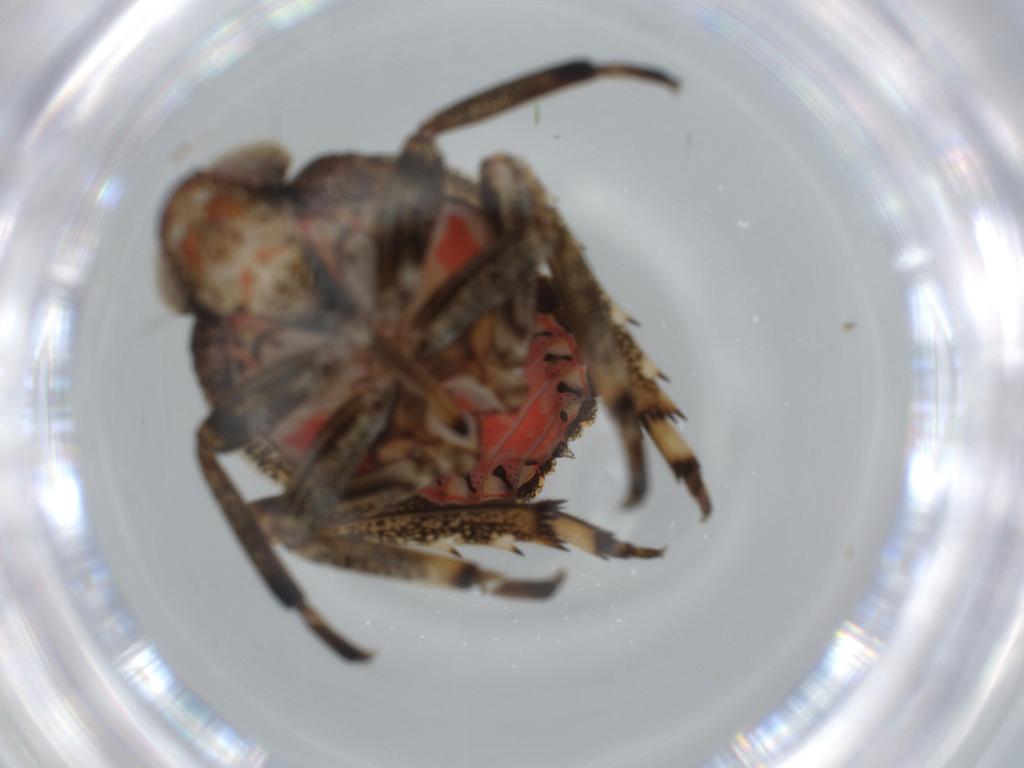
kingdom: Animalia
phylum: Arthropoda
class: Insecta
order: Hemiptera
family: Issidae
